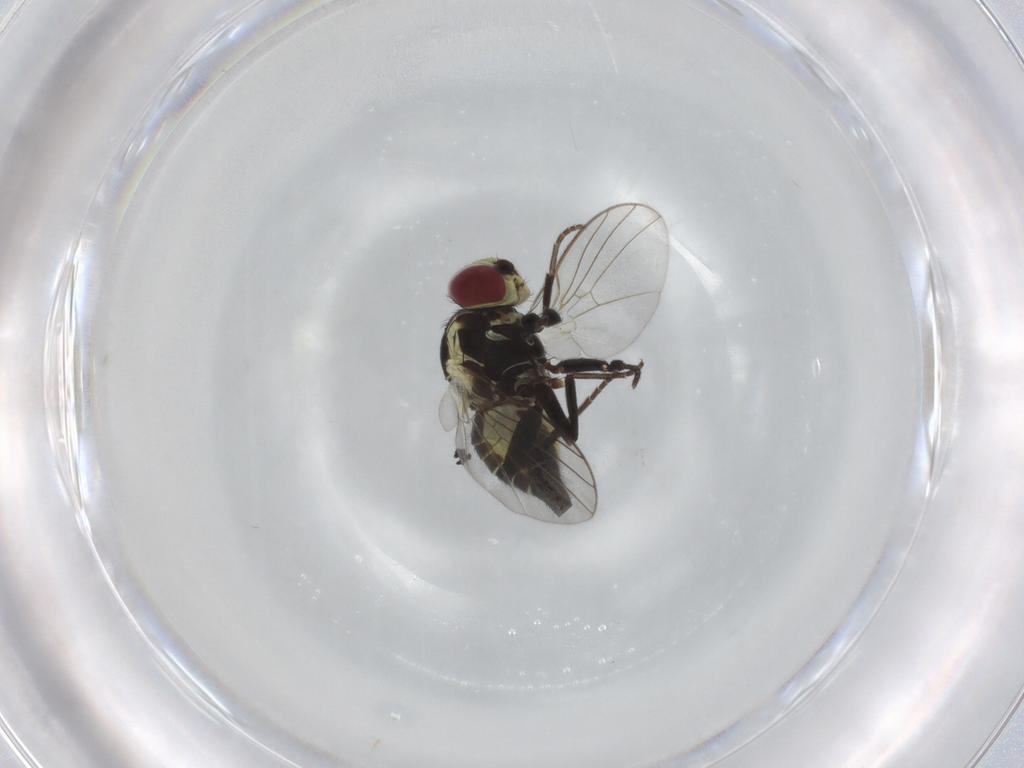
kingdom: Animalia
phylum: Arthropoda
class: Insecta
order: Diptera
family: Agromyzidae
